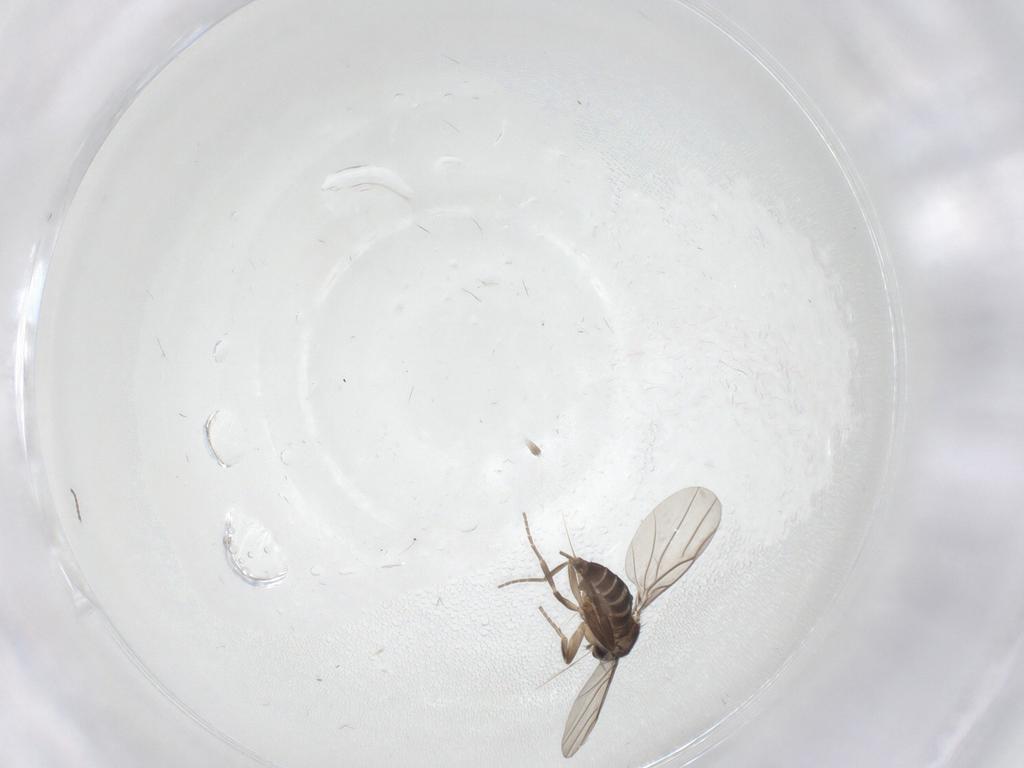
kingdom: Animalia
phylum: Arthropoda
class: Insecta
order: Diptera
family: Phoridae
